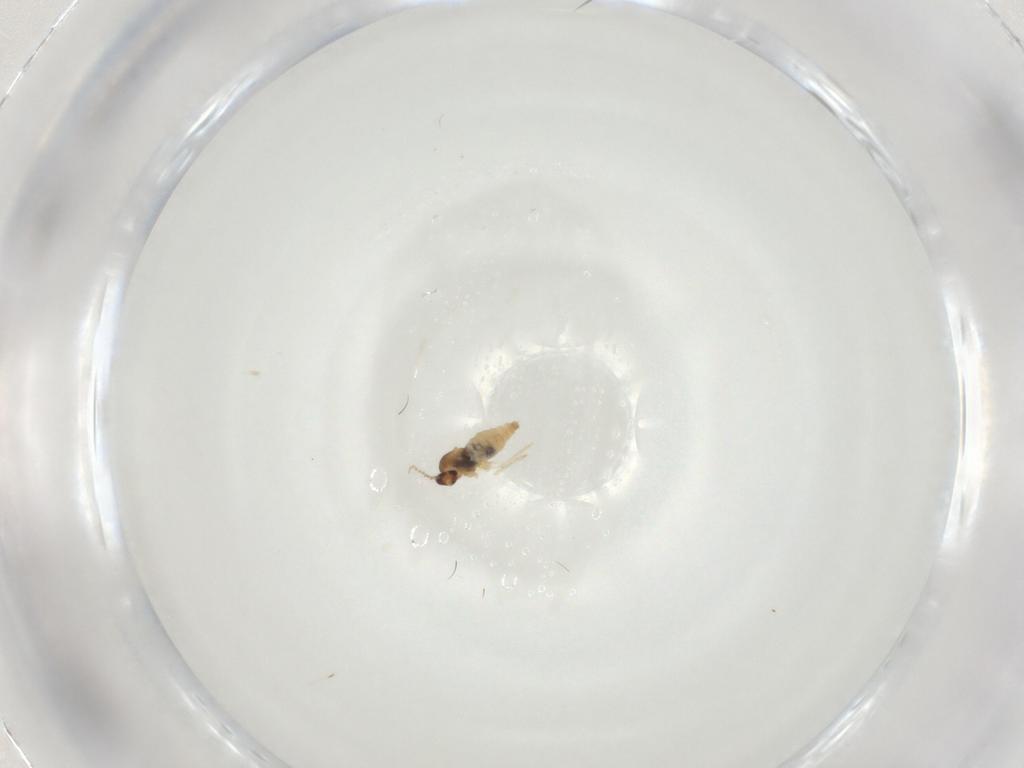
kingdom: Animalia
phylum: Arthropoda
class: Insecta
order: Diptera
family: Cecidomyiidae
